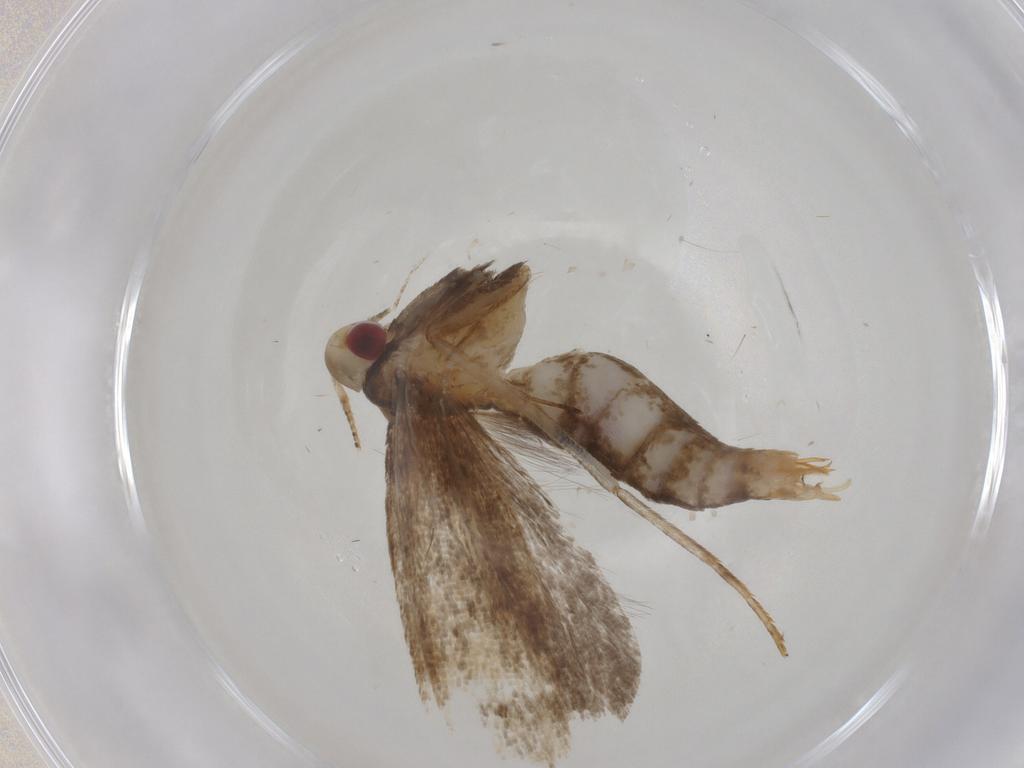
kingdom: Animalia
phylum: Arthropoda
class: Insecta
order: Lepidoptera
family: Gelechiidae
